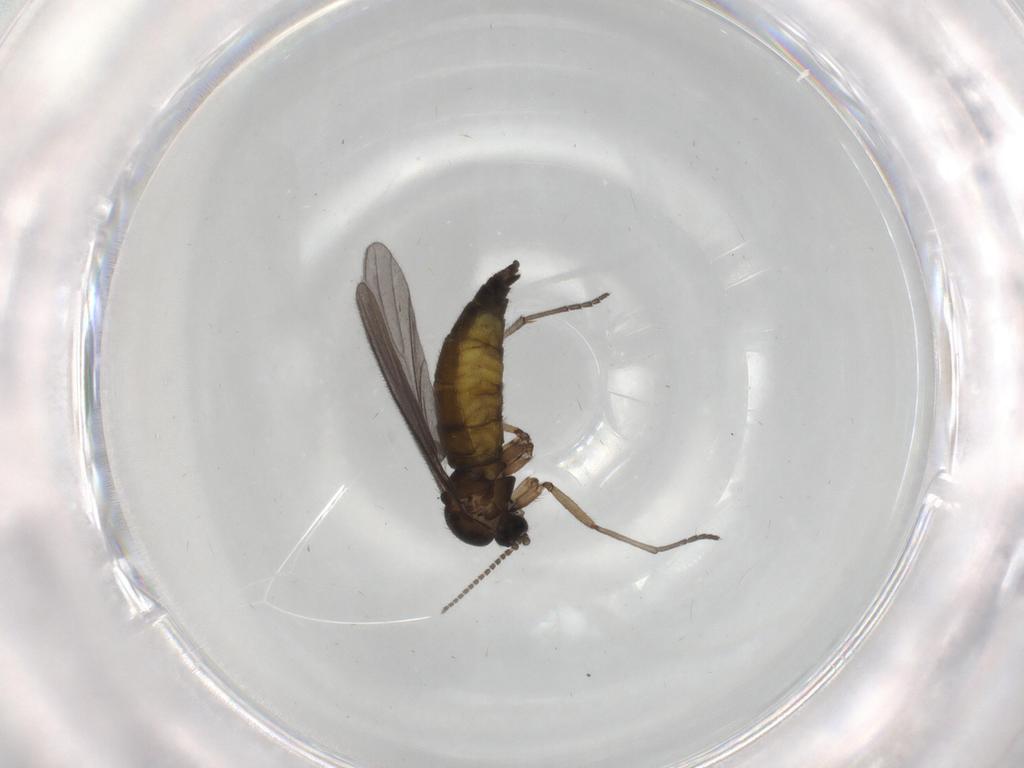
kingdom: Animalia
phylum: Arthropoda
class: Insecta
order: Diptera
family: Sciaridae
